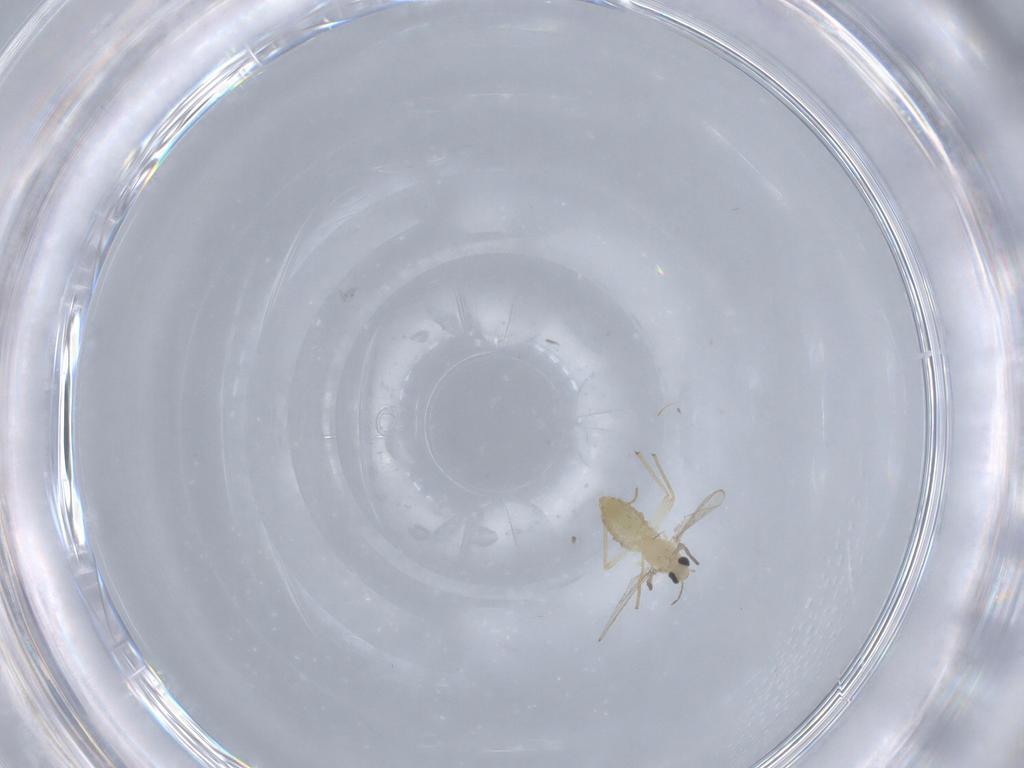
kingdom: Animalia
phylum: Arthropoda
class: Insecta
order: Diptera
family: Chironomidae
